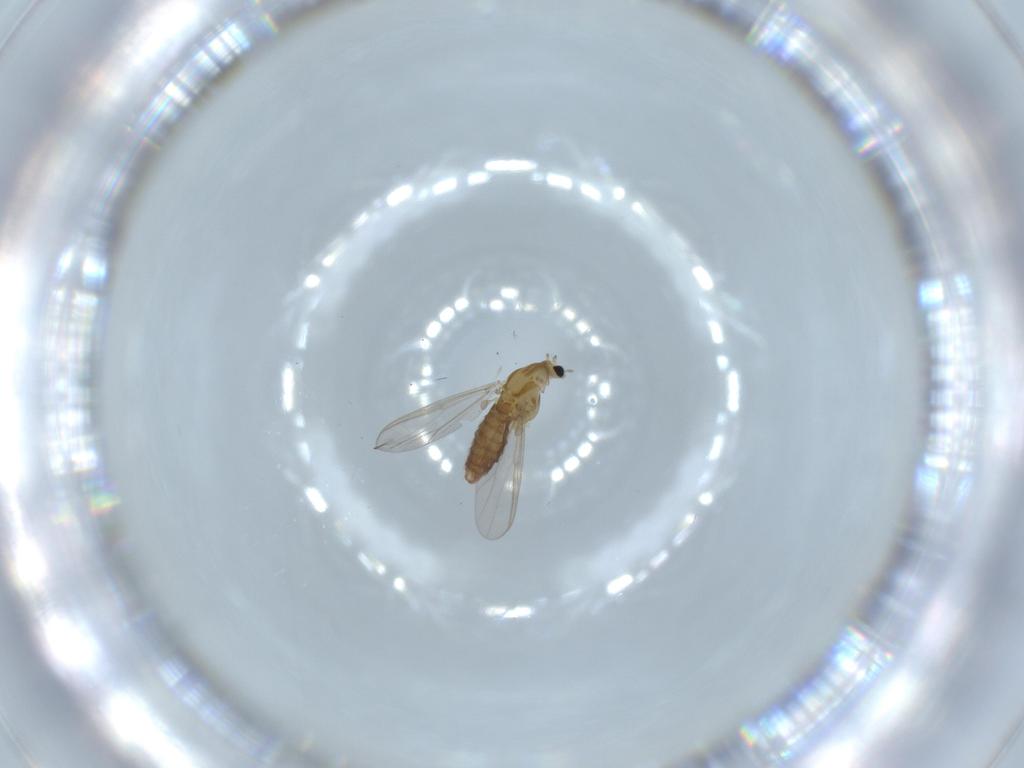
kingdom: Animalia
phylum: Arthropoda
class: Insecta
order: Diptera
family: Chironomidae
